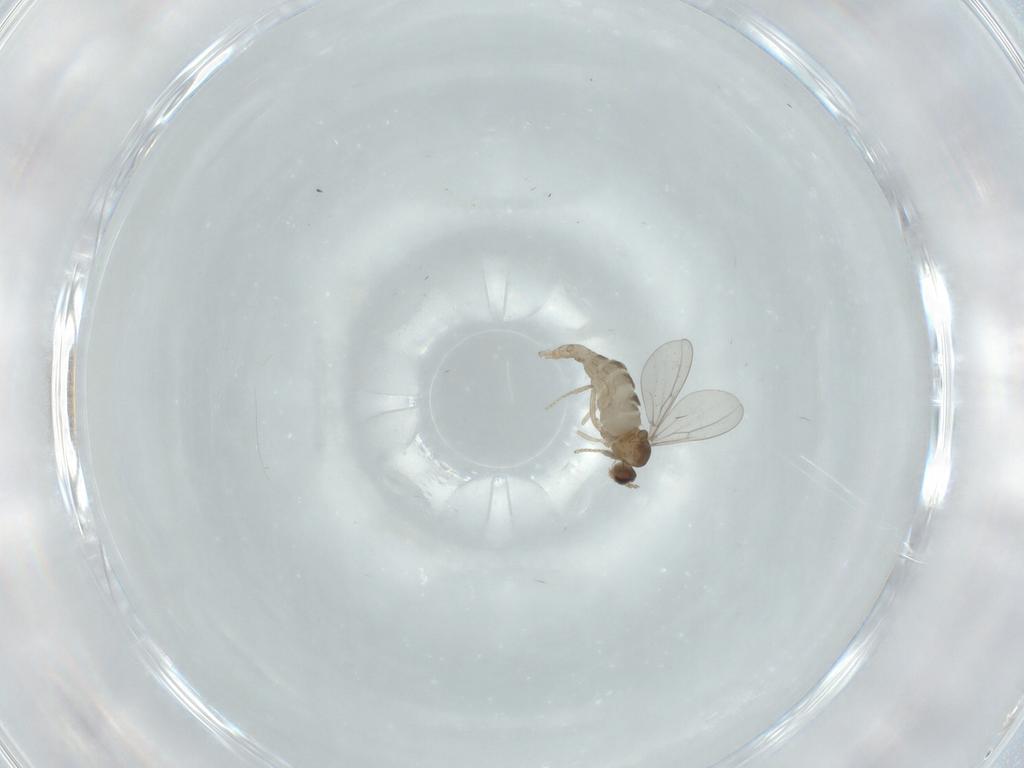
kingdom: Animalia
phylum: Arthropoda
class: Insecta
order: Diptera
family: Cecidomyiidae
